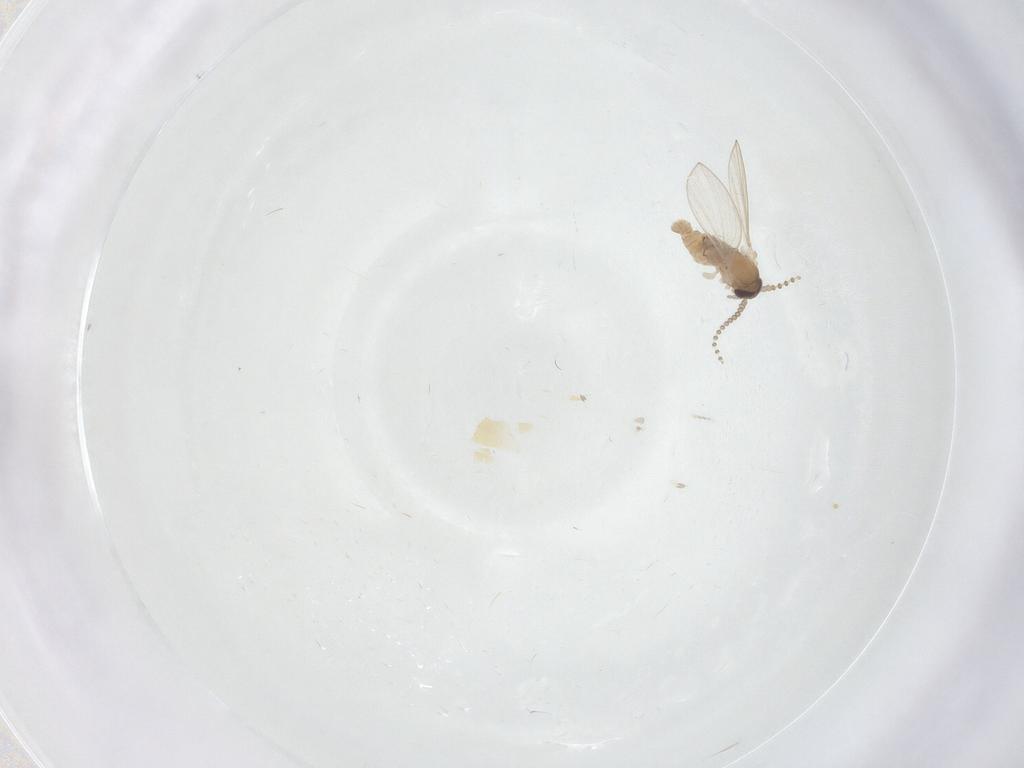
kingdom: Animalia
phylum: Arthropoda
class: Insecta
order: Diptera
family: Psychodidae
